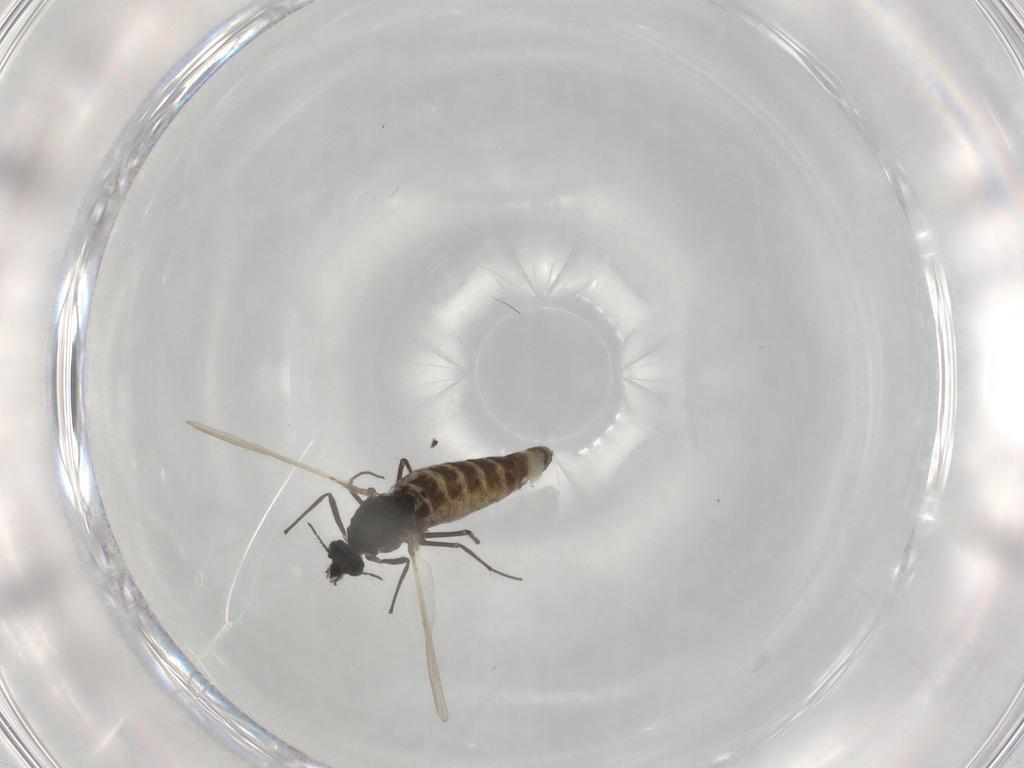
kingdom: Animalia
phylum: Arthropoda
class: Insecta
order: Diptera
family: Chironomidae
